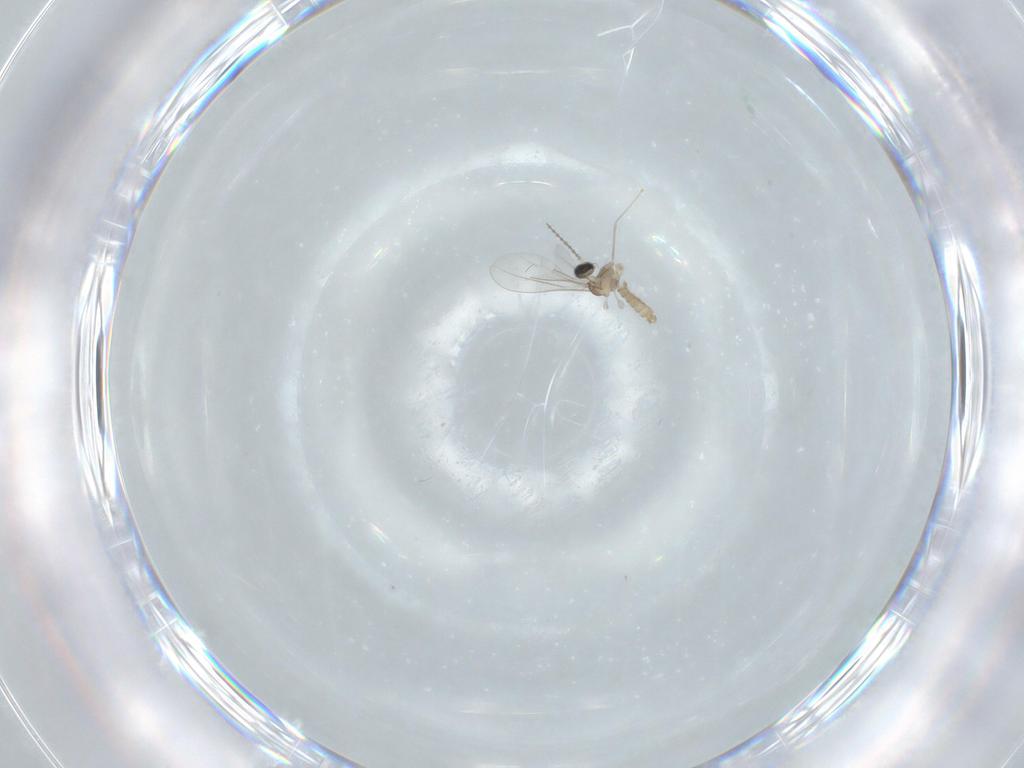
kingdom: Animalia
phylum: Arthropoda
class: Insecta
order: Diptera
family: Cecidomyiidae
